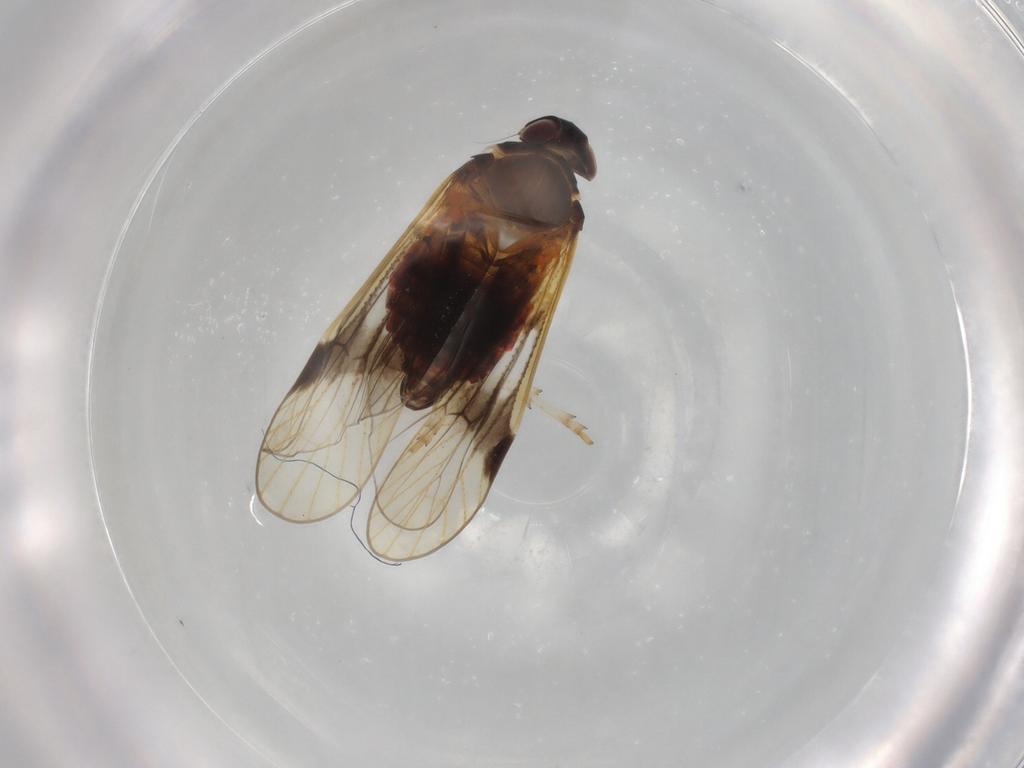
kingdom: Animalia
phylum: Arthropoda
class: Insecta
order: Hemiptera
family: Cixiidae
